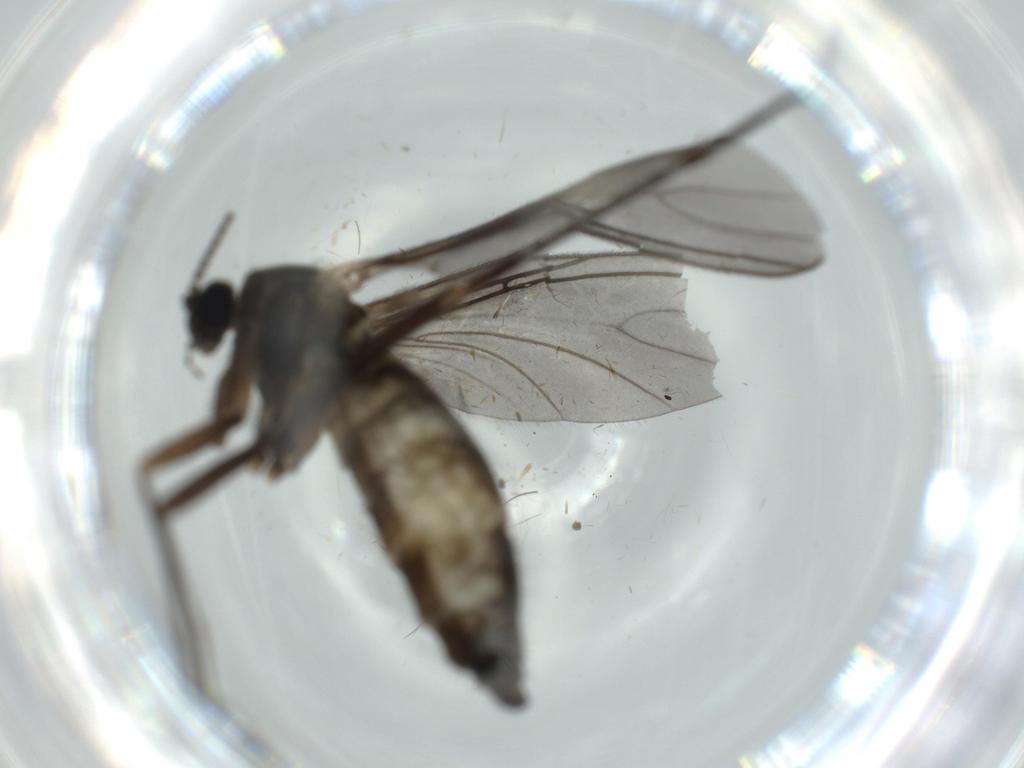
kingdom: Animalia
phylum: Arthropoda
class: Insecta
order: Diptera
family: Sciaridae
